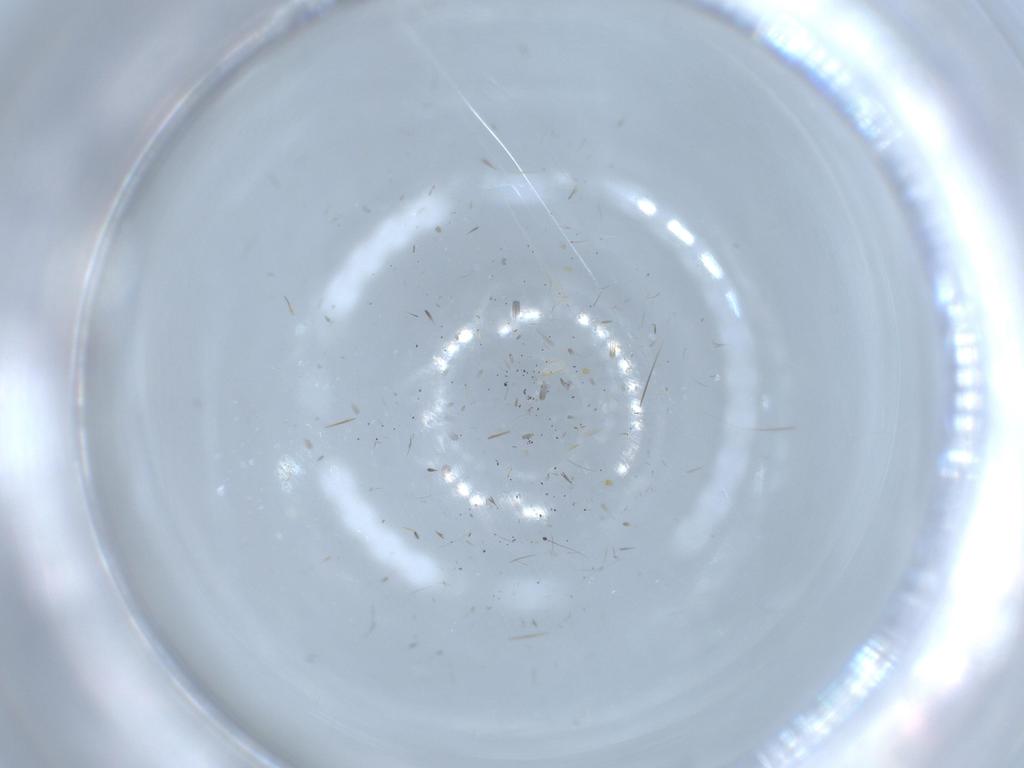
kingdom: Animalia
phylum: Arthropoda
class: Insecta
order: Blattodea
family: Epilampridae
